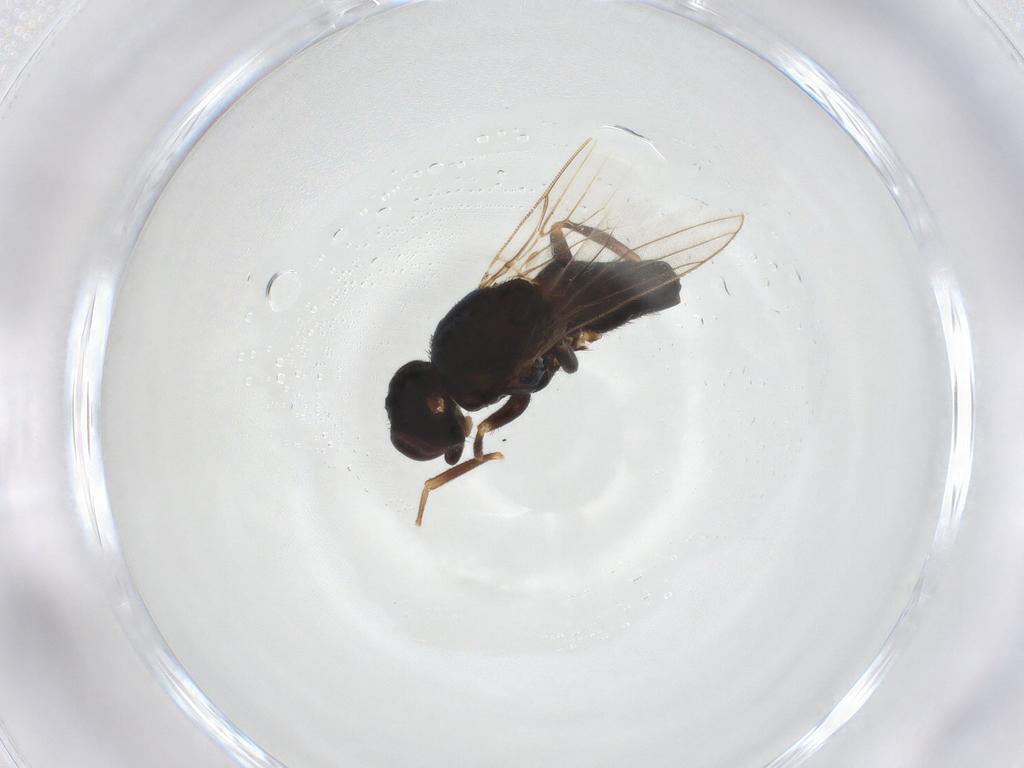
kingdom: Animalia
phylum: Arthropoda
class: Insecta
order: Diptera
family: Chloropidae
